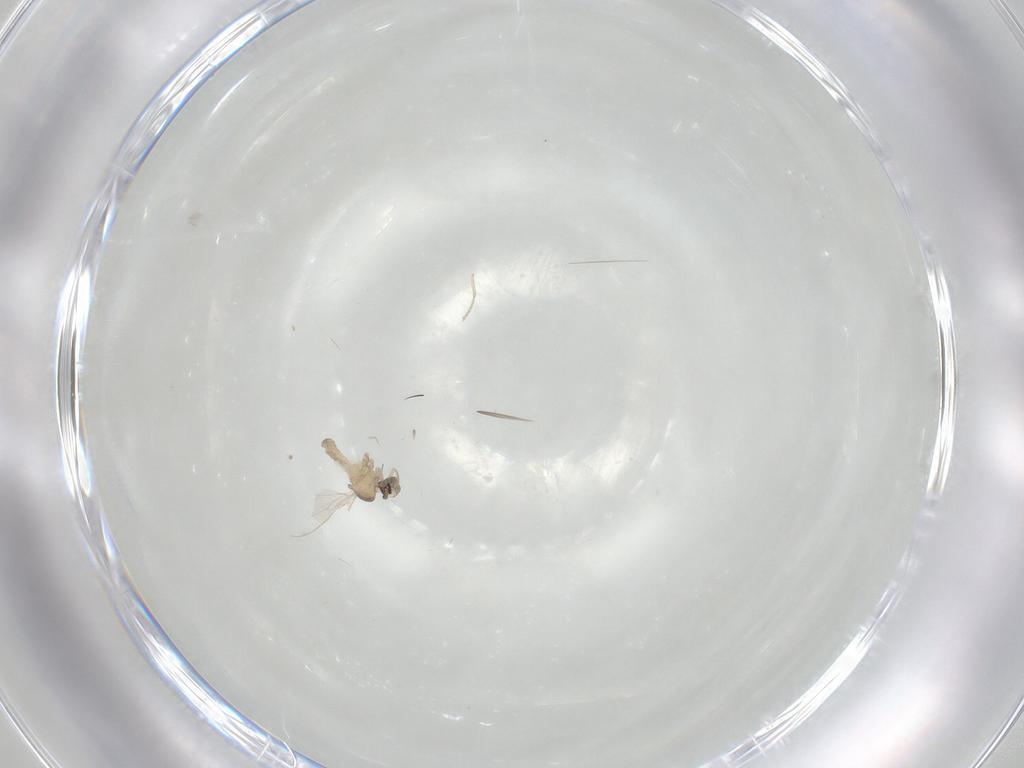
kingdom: Animalia
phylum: Arthropoda
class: Insecta
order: Diptera
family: Cecidomyiidae
